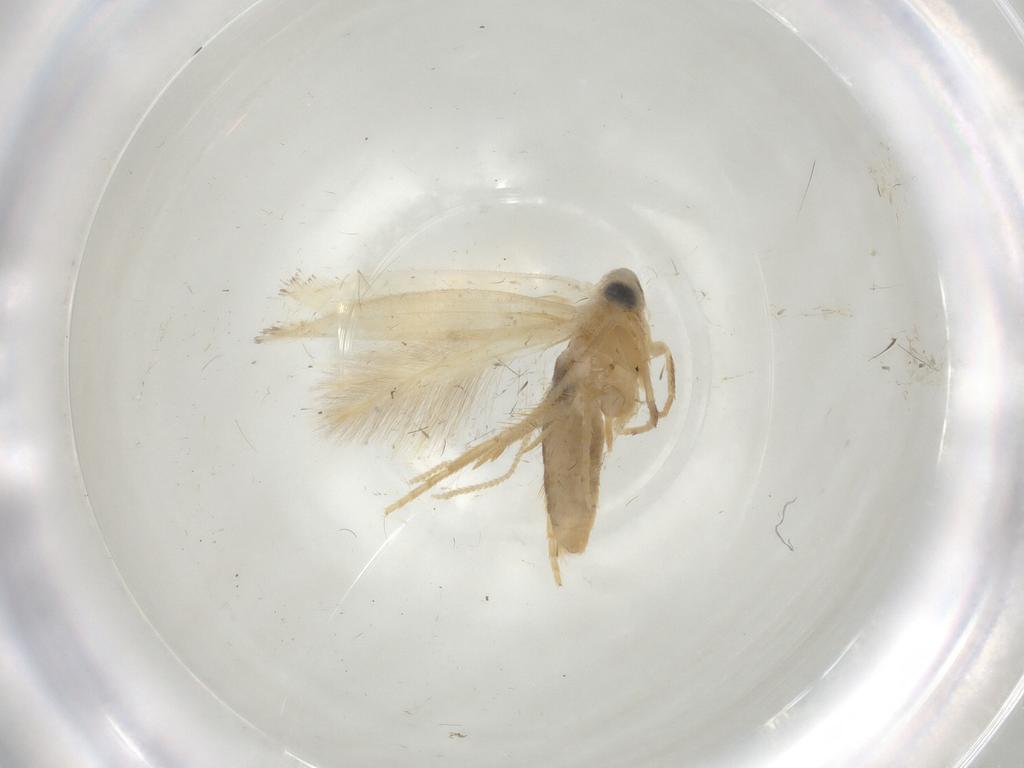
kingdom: Animalia
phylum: Arthropoda
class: Insecta
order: Lepidoptera
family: Opostegidae
